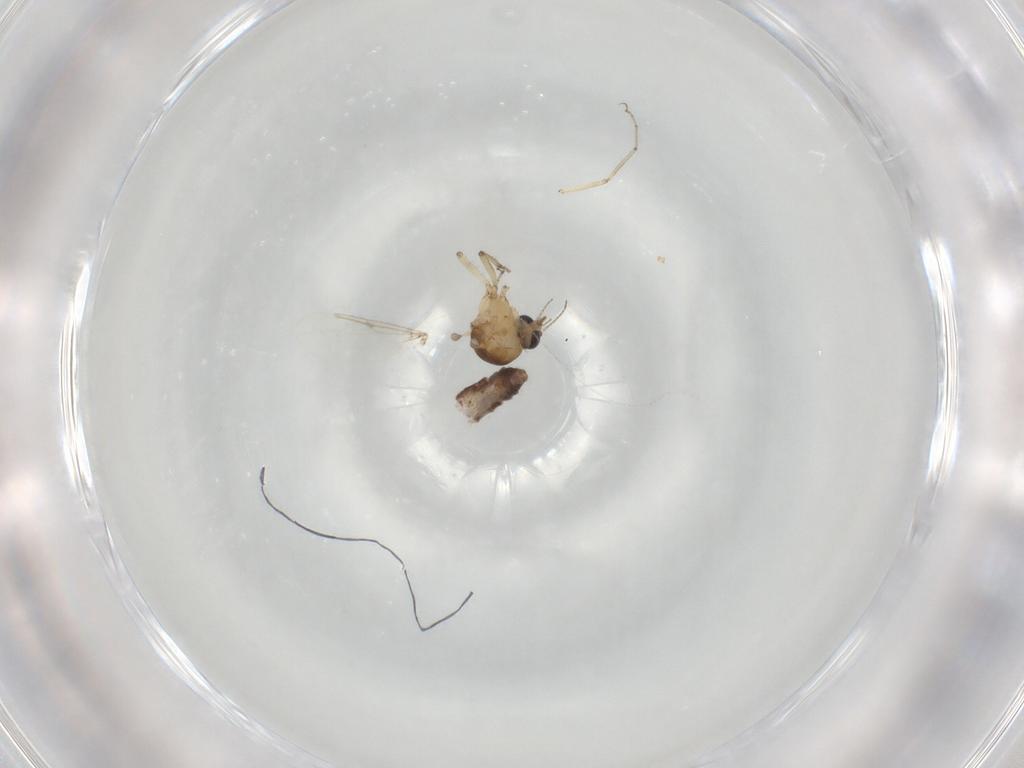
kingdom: Animalia
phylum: Arthropoda
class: Insecta
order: Diptera
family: Ceratopogonidae
